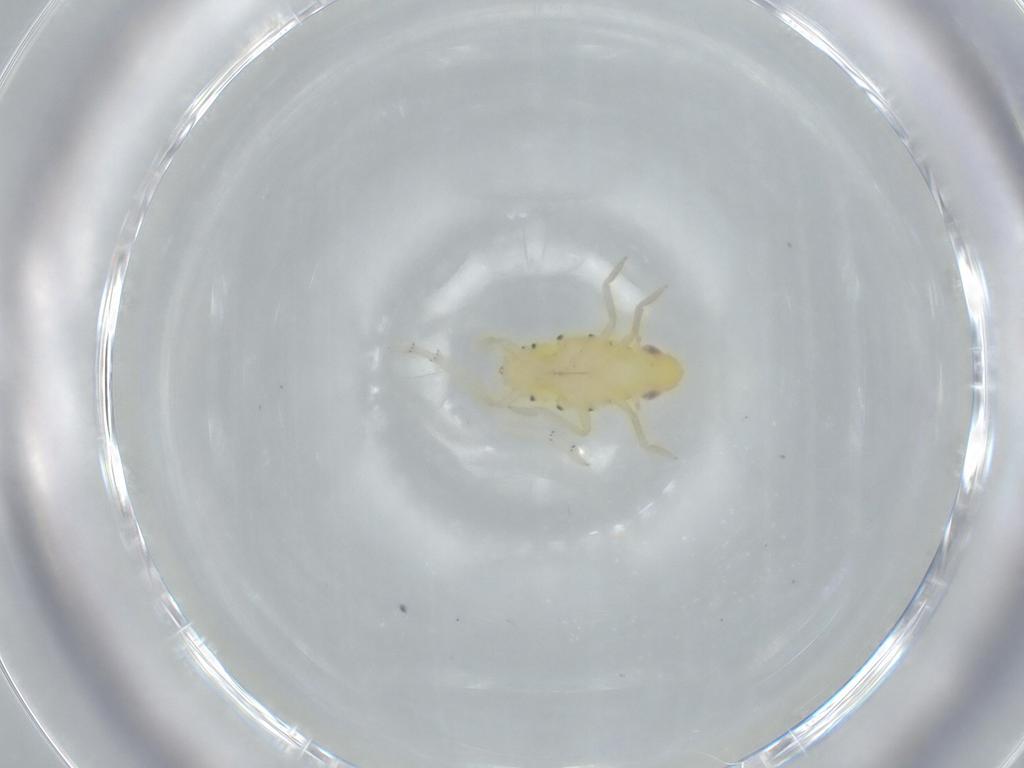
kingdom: Animalia
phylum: Arthropoda
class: Insecta
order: Hemiptera
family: Tropiduchidae
